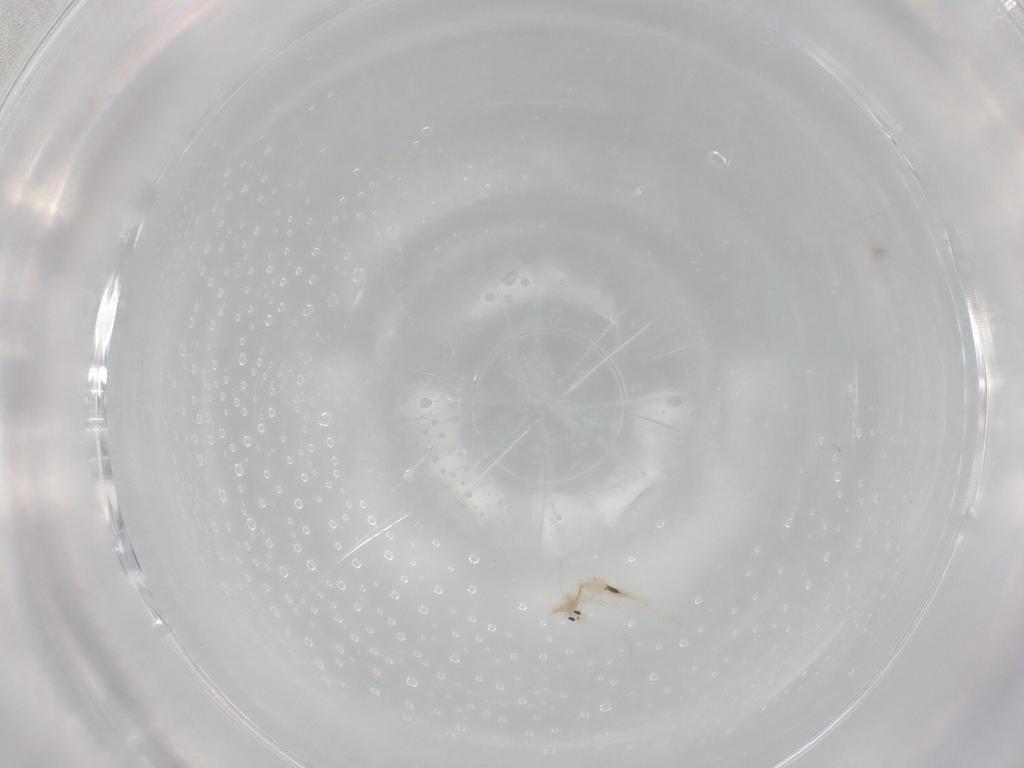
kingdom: Animalia
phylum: Arthropoda
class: Collembola
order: Entomobryomorpha
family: Entomobryidae
